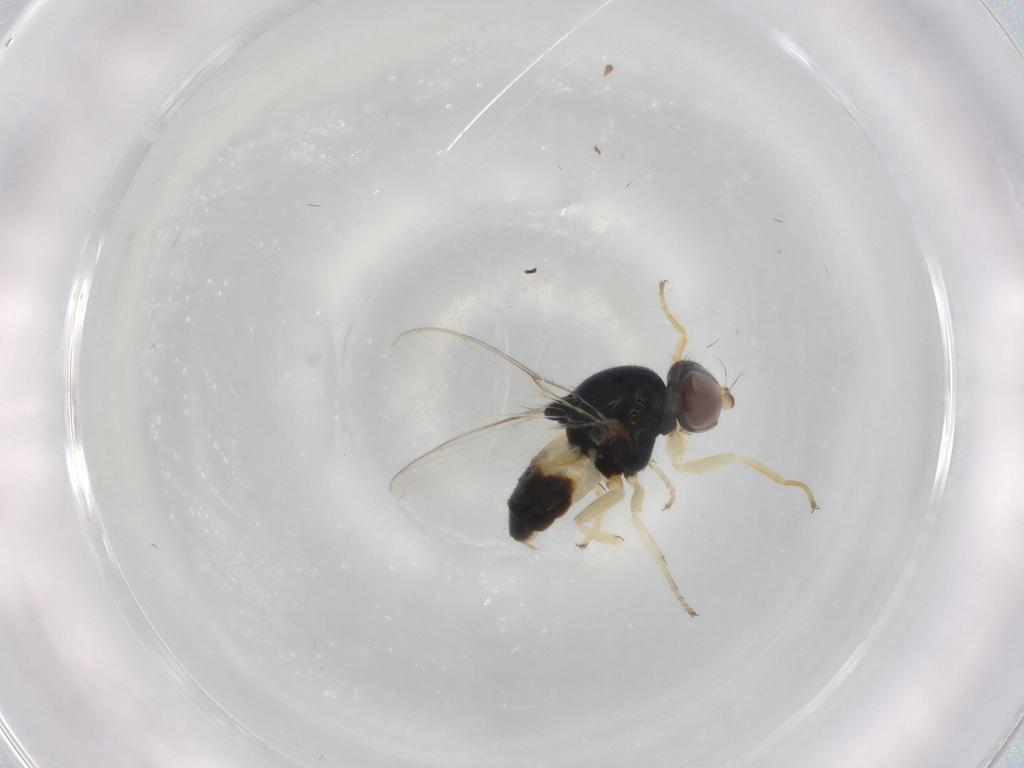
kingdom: Animalia
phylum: Arthropoda
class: Insecta
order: Diptera
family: Chloropidae
